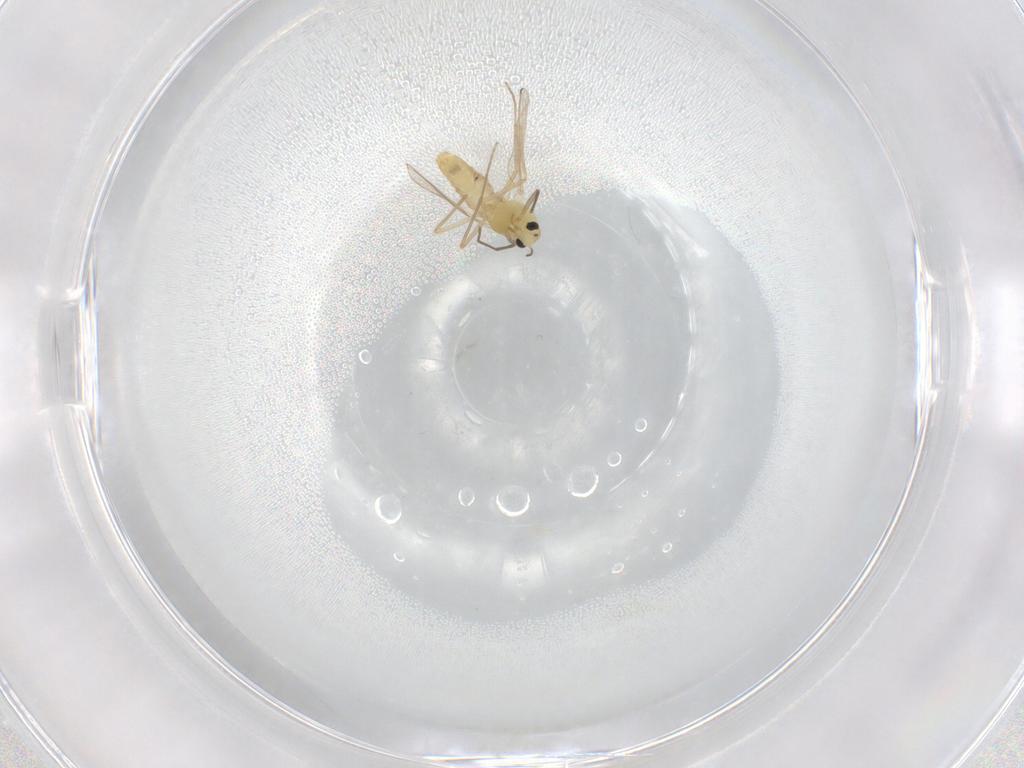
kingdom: Animalia
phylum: Arthropoda
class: Insecta
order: Diptera
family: Chironomidae
